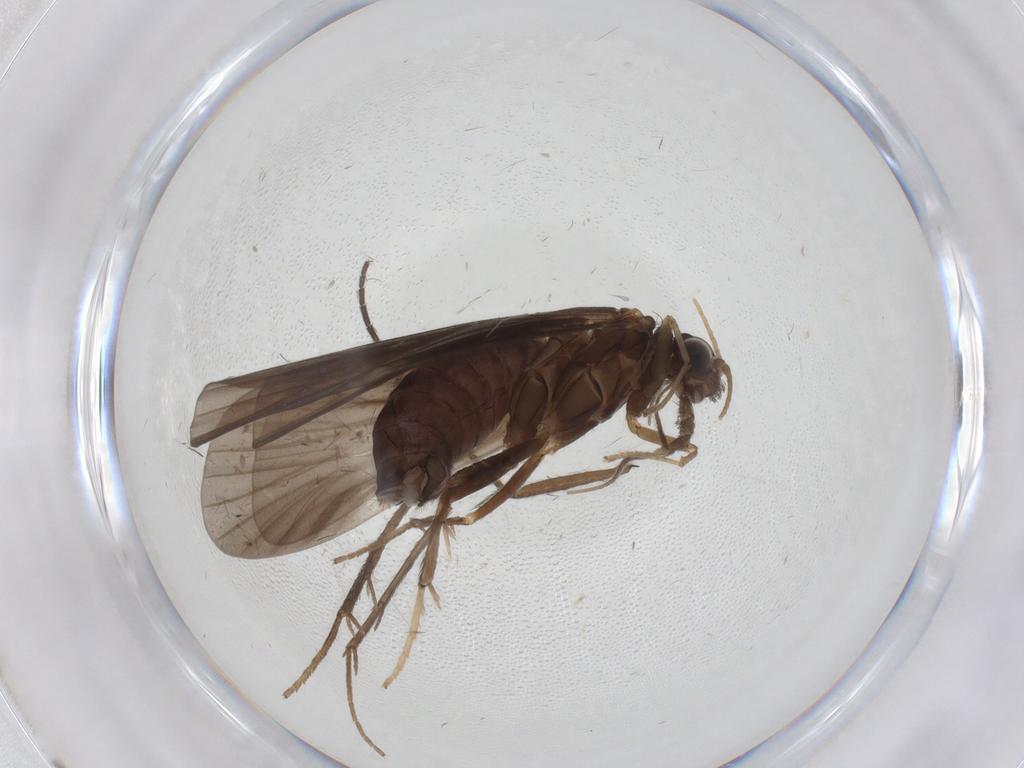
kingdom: Animalia
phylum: Arthropoda
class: Insecta
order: Trichoptera
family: Hydropsychidae
